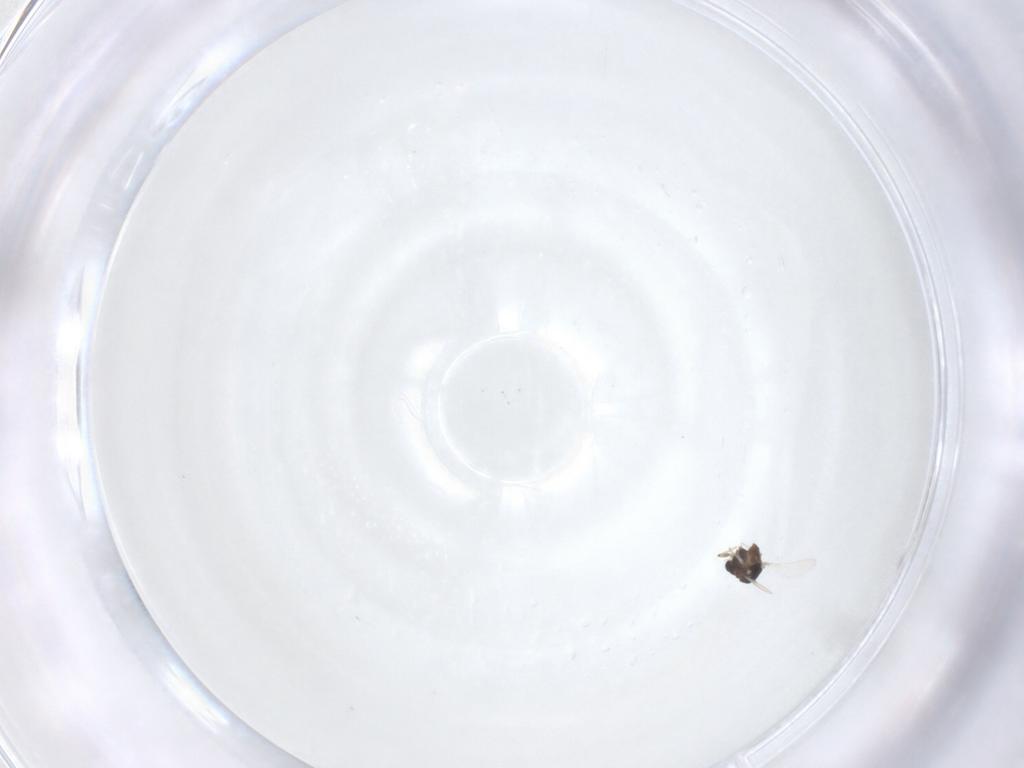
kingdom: Animalia
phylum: Arthropoda
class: Insecta
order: Diptera
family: Chironomidae
